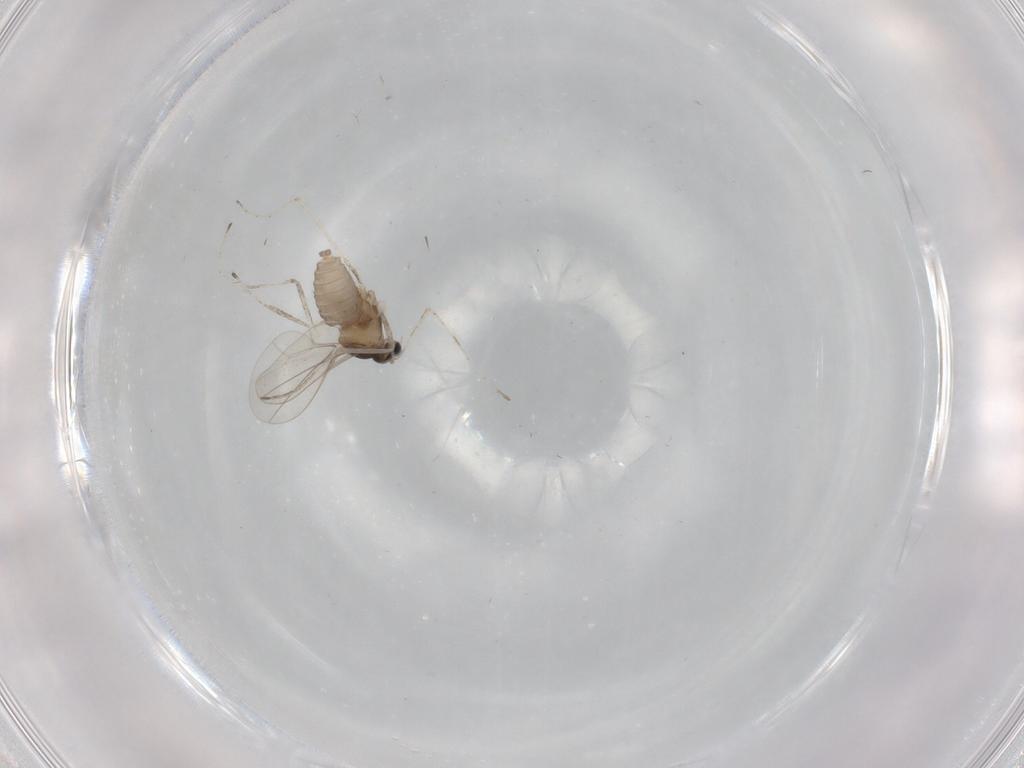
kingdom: Animalia
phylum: Arthropoda
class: Insecta
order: Diptera
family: Cecidomyiidae
